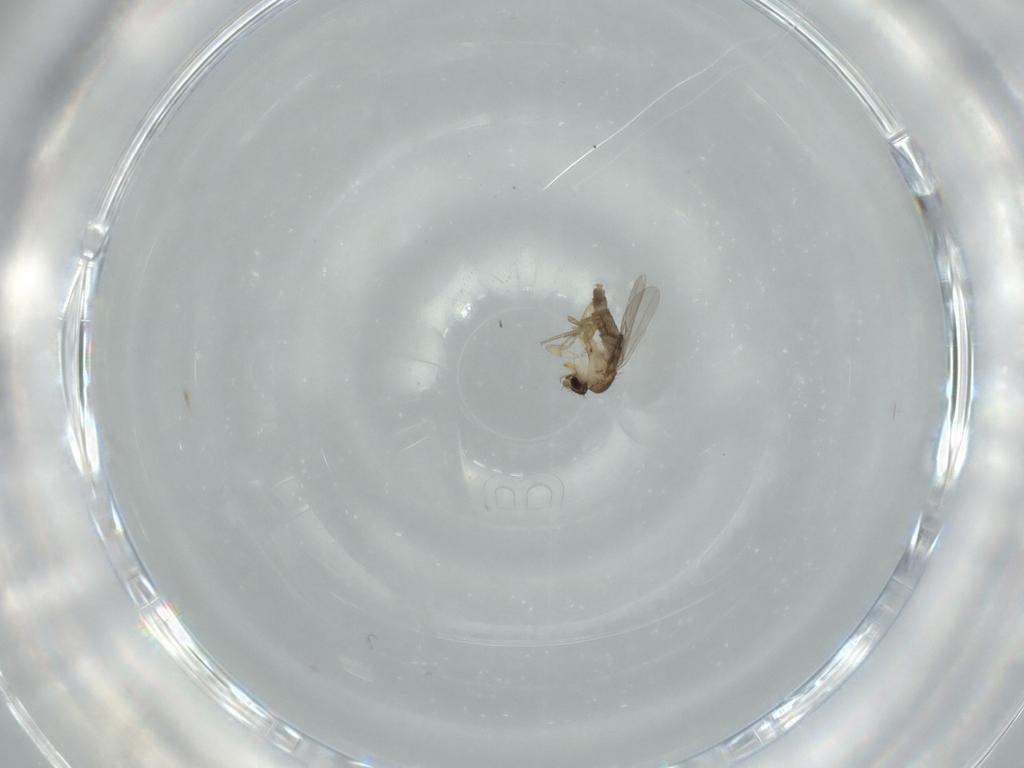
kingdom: Animalia
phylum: Arthropoda
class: Insecta
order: Diptera
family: Phoridae
